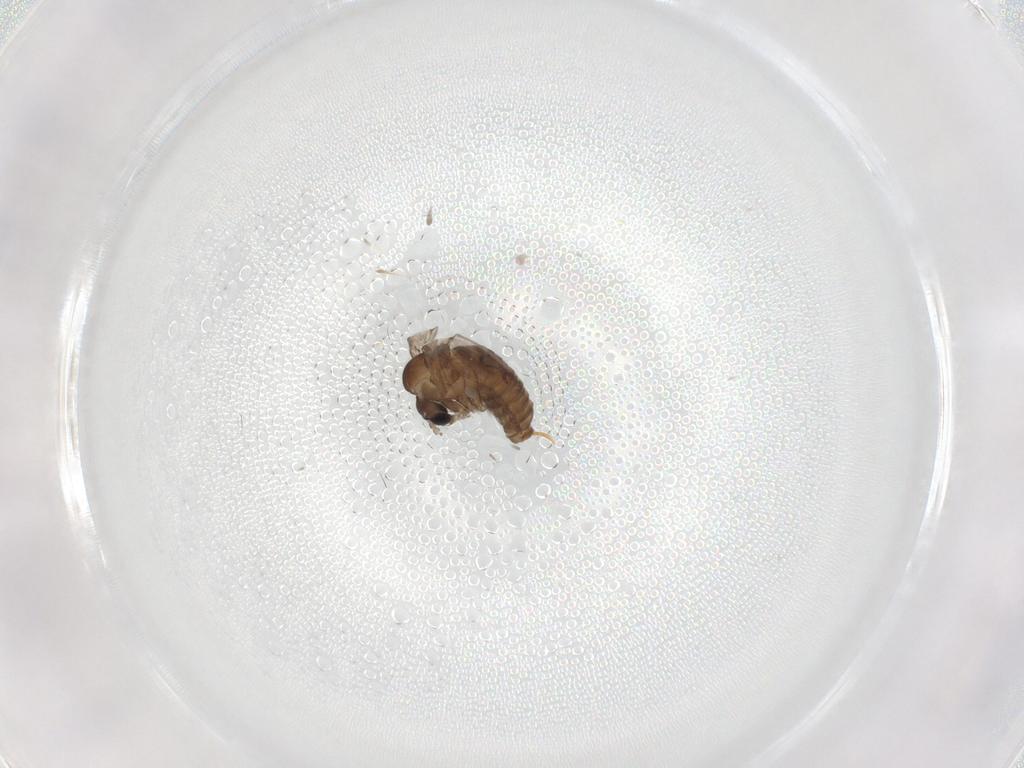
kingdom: Animalia
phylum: Arthropoda
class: Insecta
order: Diptera
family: Psychodidae
